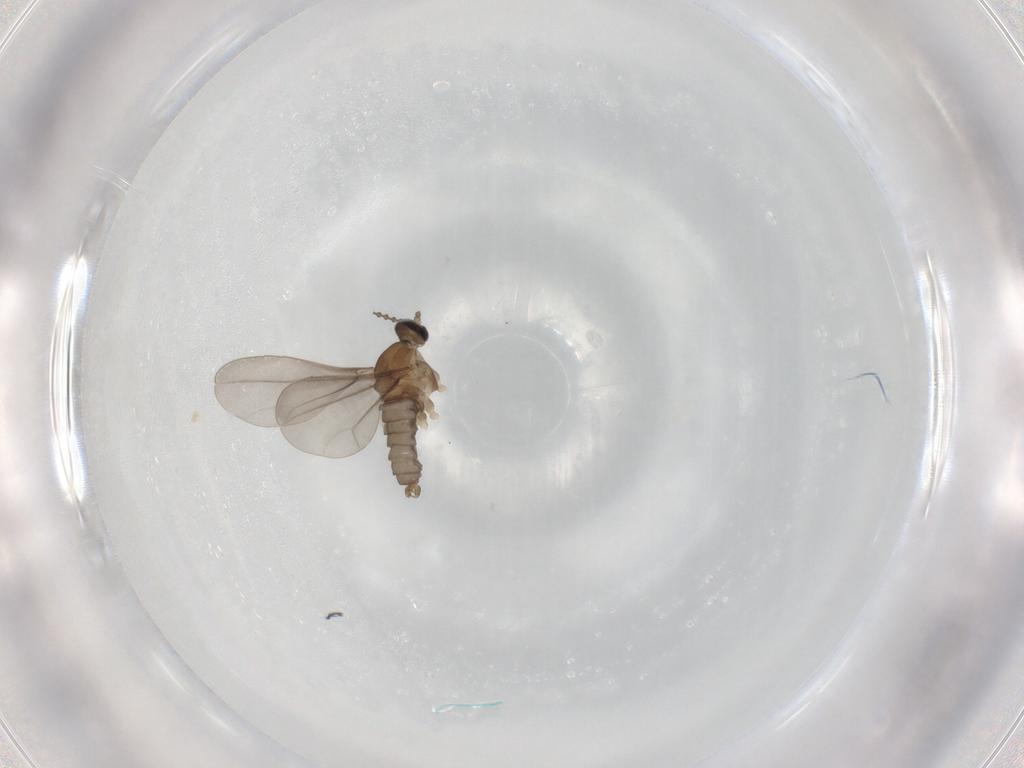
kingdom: Animalia
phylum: Arthropoda
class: Insecta
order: Diptera
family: Cecidomyiidae
